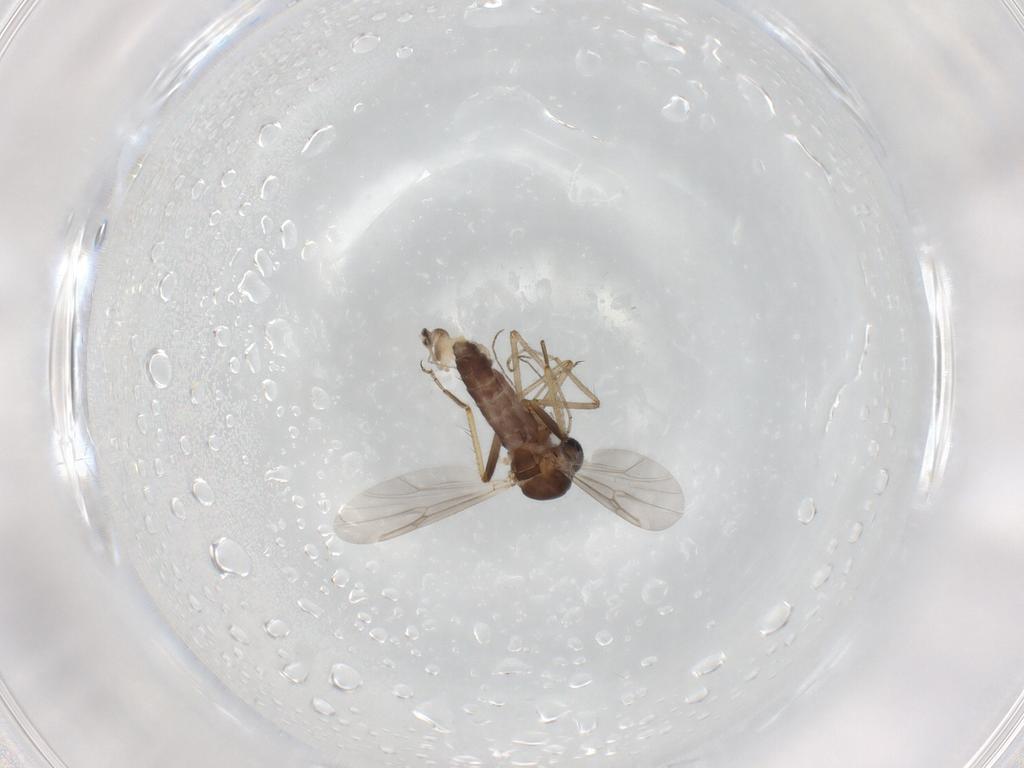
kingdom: Animalia
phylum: Arthropoda
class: Insecta
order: Diptera
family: Ceratopogonidae
